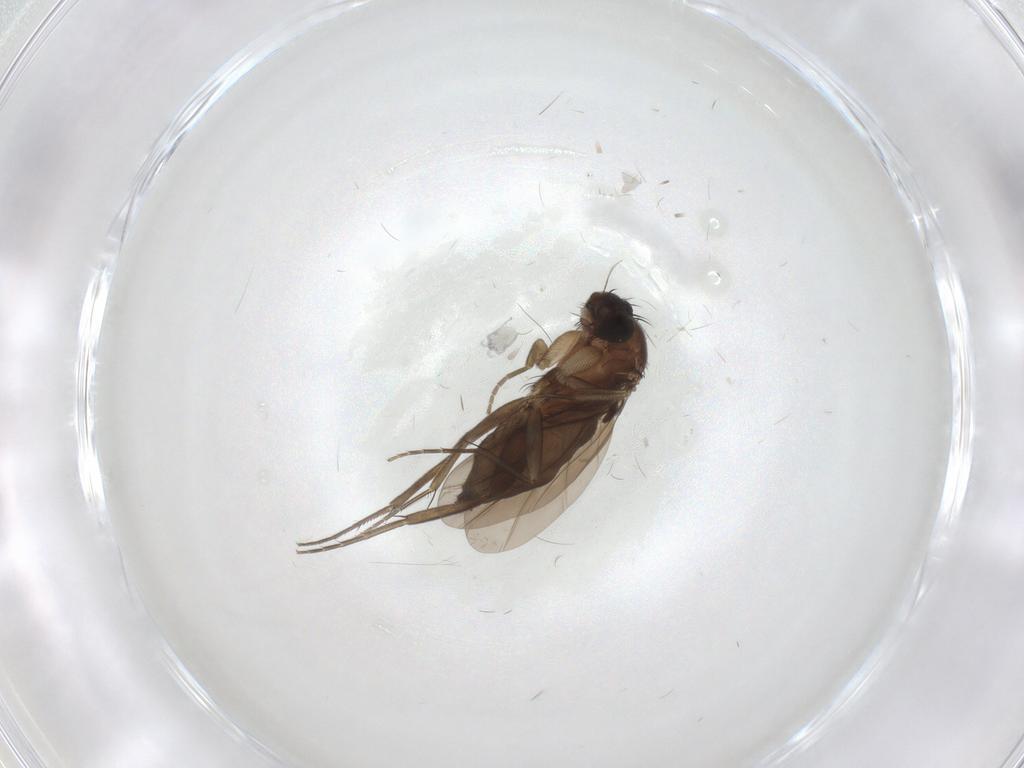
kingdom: Animalia
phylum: Arthropoda
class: Insecta
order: Diptera
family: Phoridae
